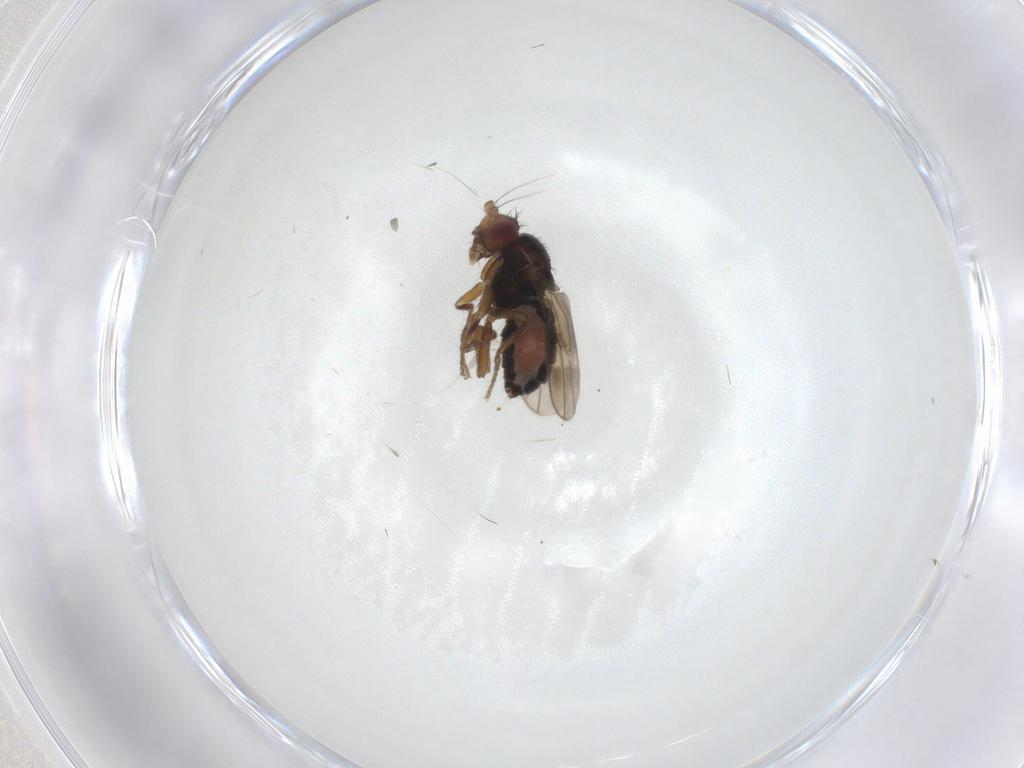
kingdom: Animalia
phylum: Arthropoda
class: Insecta
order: Diptera
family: Sphaeroceridae
